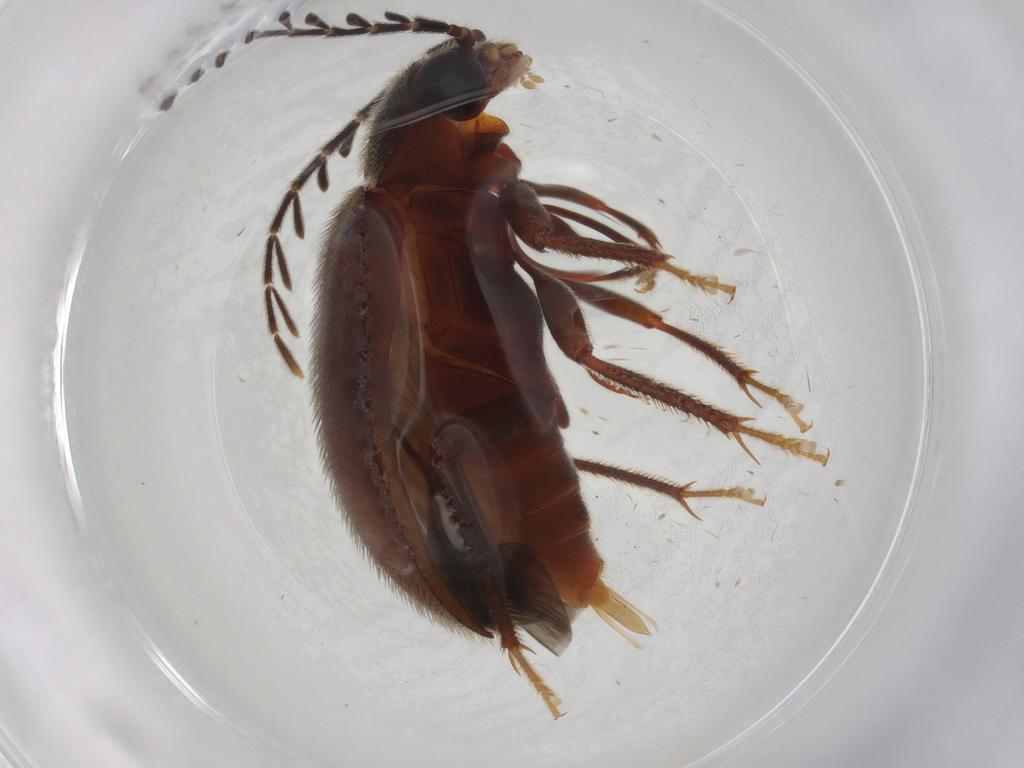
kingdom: Animalia
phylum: Arthropoda
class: Insecta
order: Coleoptera
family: Ptilodactylidae
